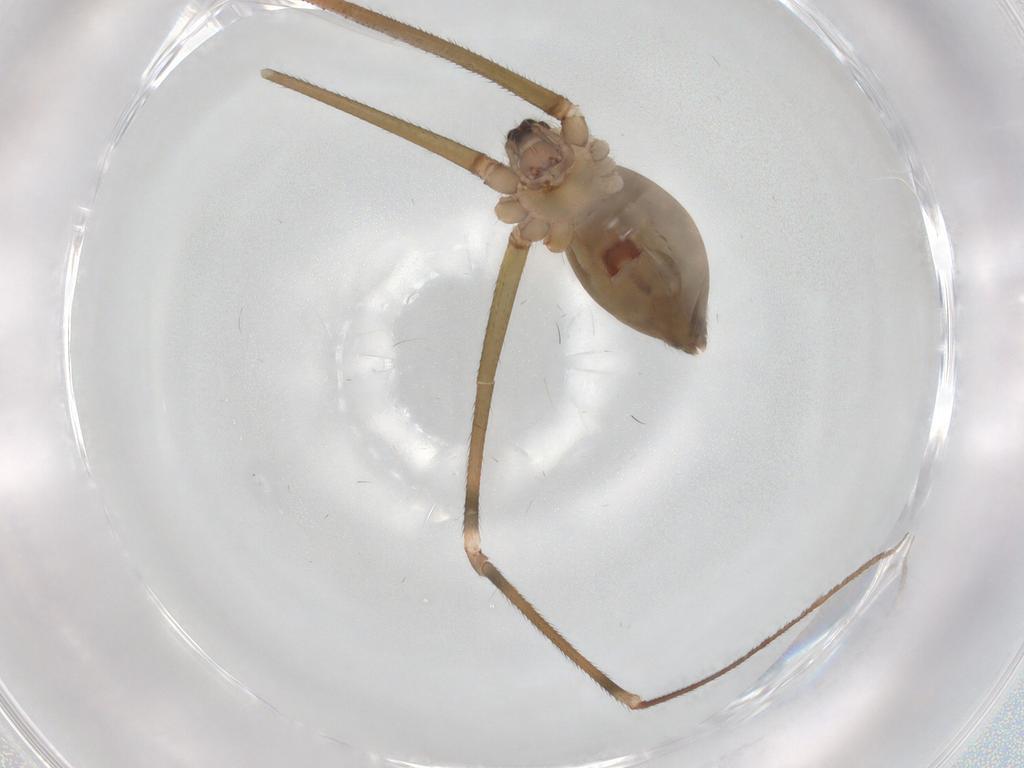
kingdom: Animalia
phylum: Arthropoda
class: Arachnida
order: Araneae
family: Pholcidae
